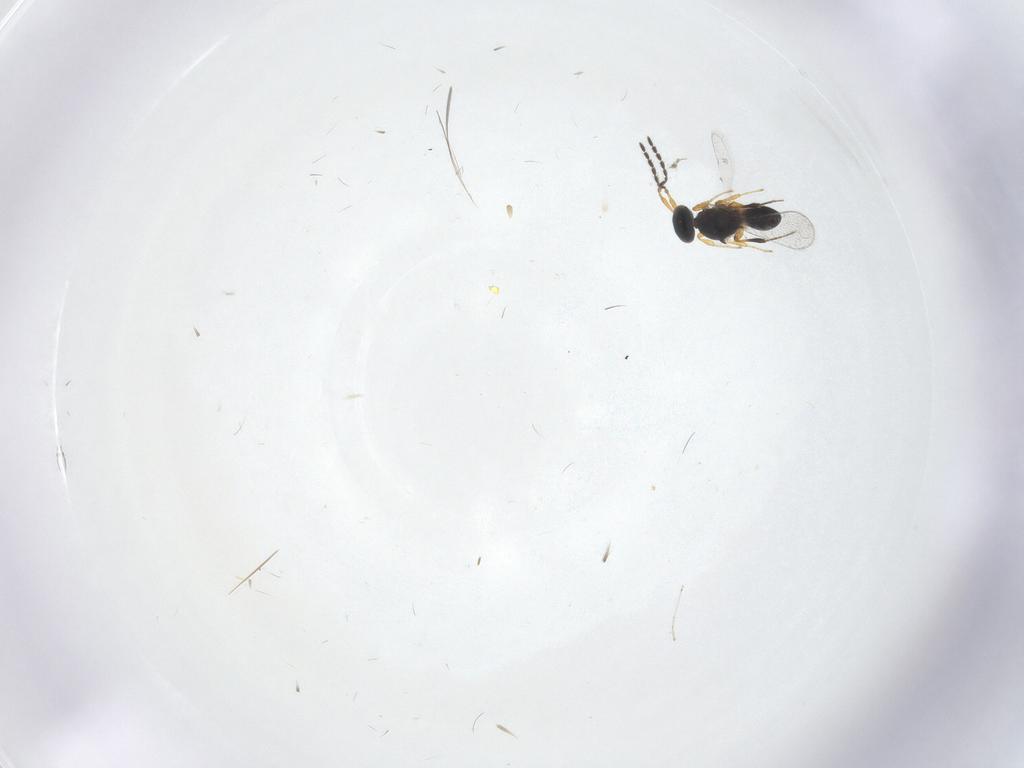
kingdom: Animalia
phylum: Arthropoda
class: Insecta
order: Hymenoptera
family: Platygastridae
